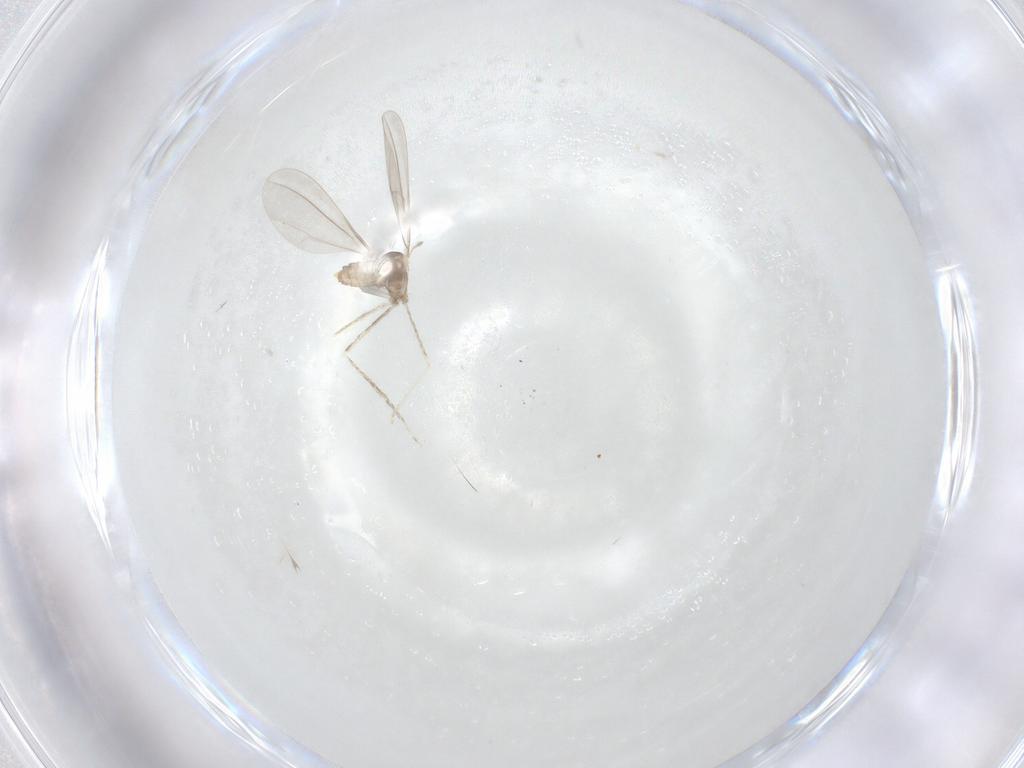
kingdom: Animalia
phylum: Arthropoda
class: Insecta
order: Diptera
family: Cecidomyiidae
